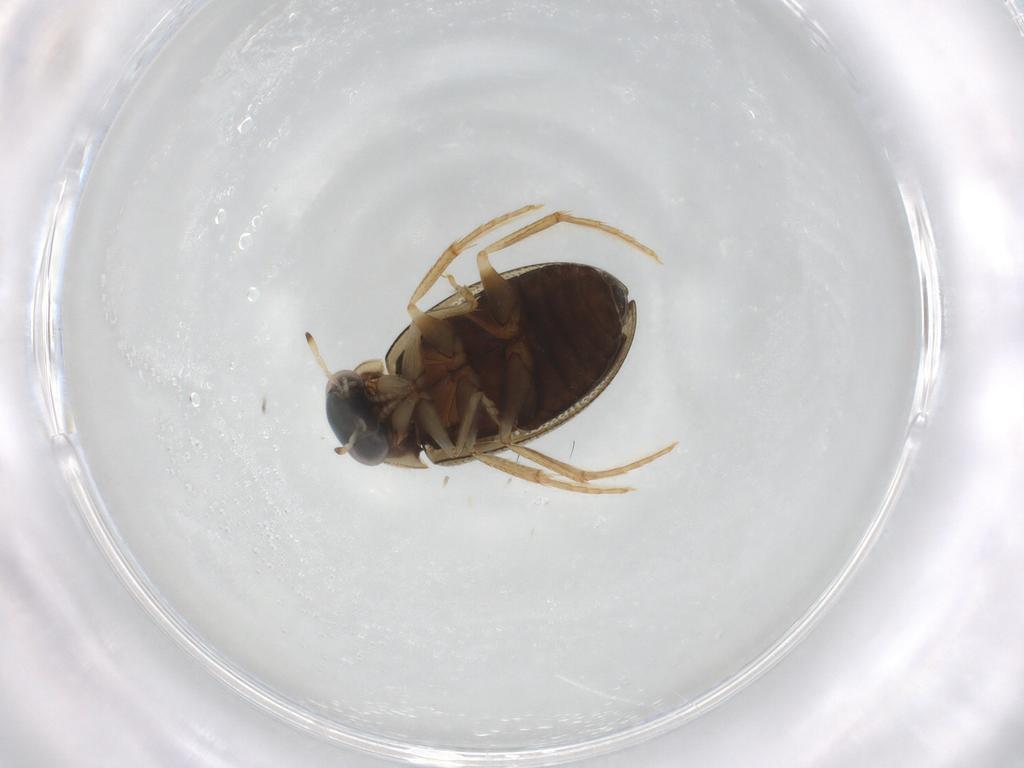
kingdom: Animalia
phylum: Arthropoda
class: Insecta
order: Coleoptera
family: Hydrophilidae
